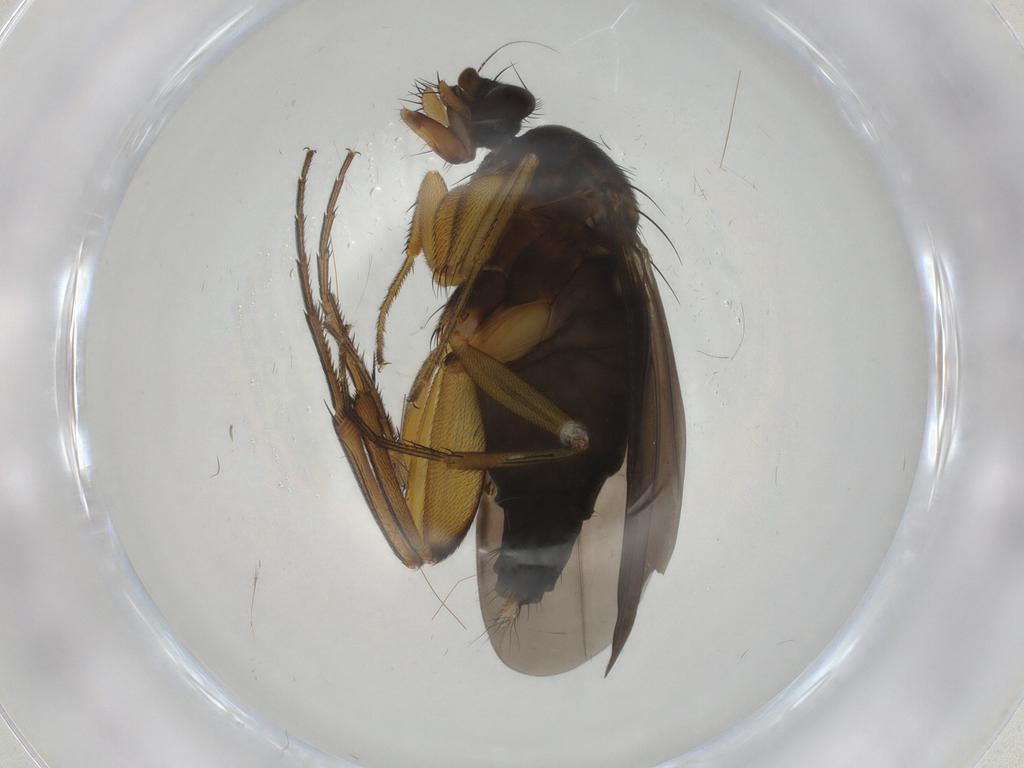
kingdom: Animalia
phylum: Arthropoda
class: Insecta
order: Diptera
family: Phoridae
